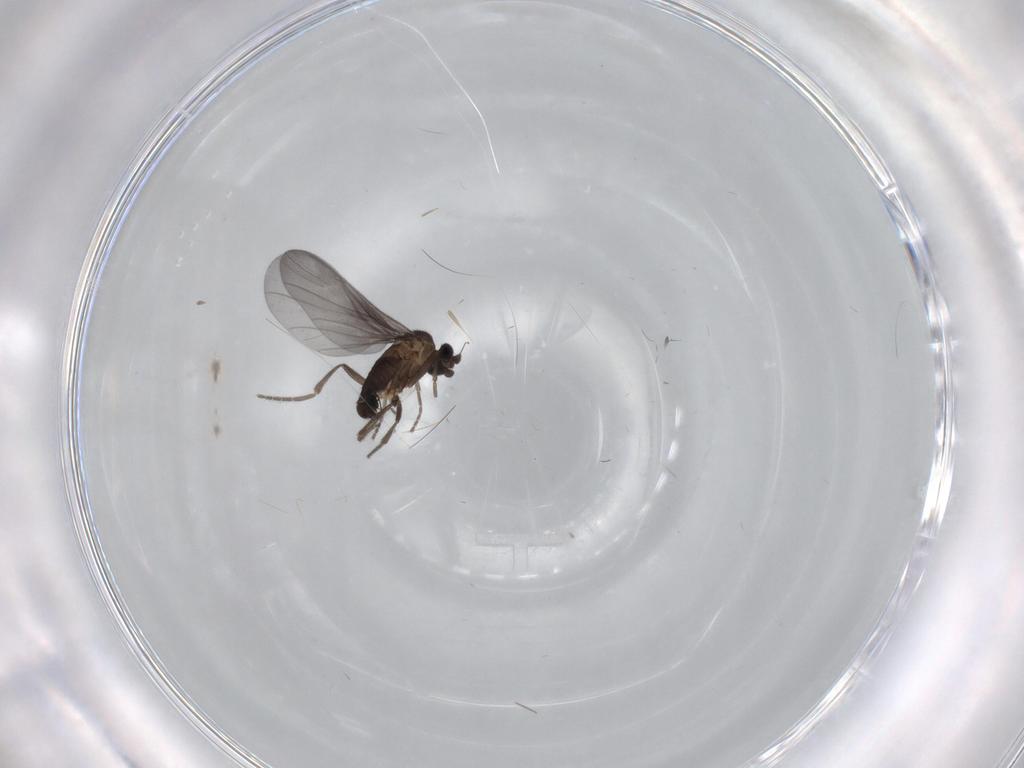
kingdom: Animalia
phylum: Arthropoda
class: Insecta
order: Diptera
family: Phoridae
